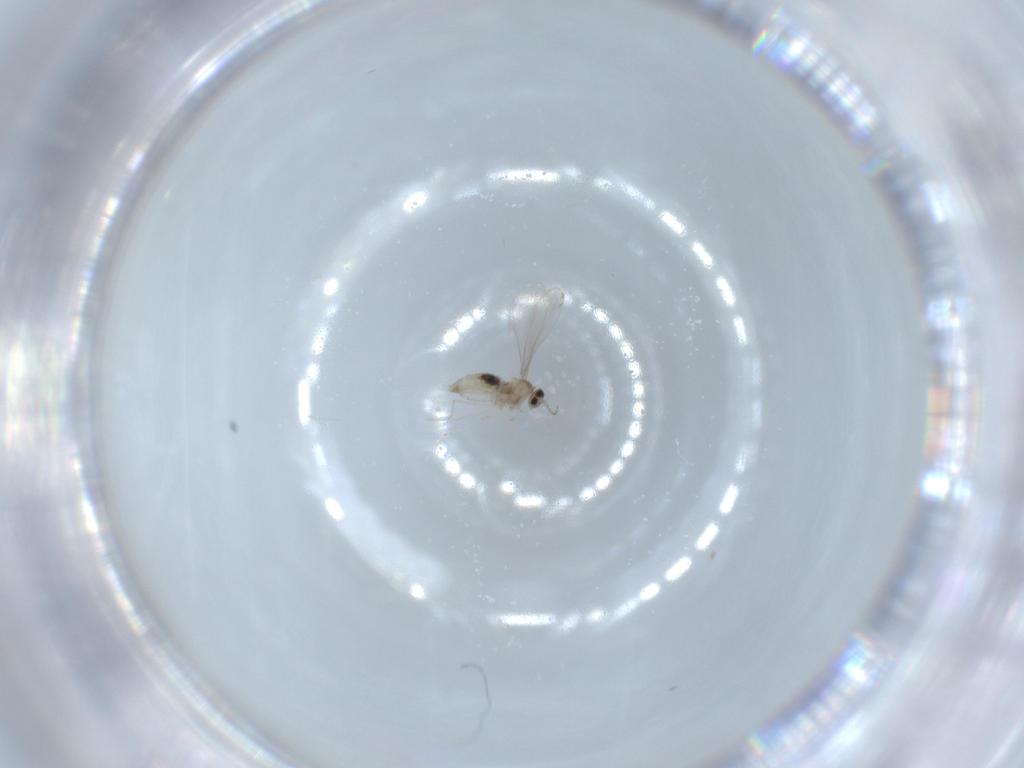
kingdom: Animalia
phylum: Arthropoda
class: Insecta
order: Diptera
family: Cecidomyiidae
